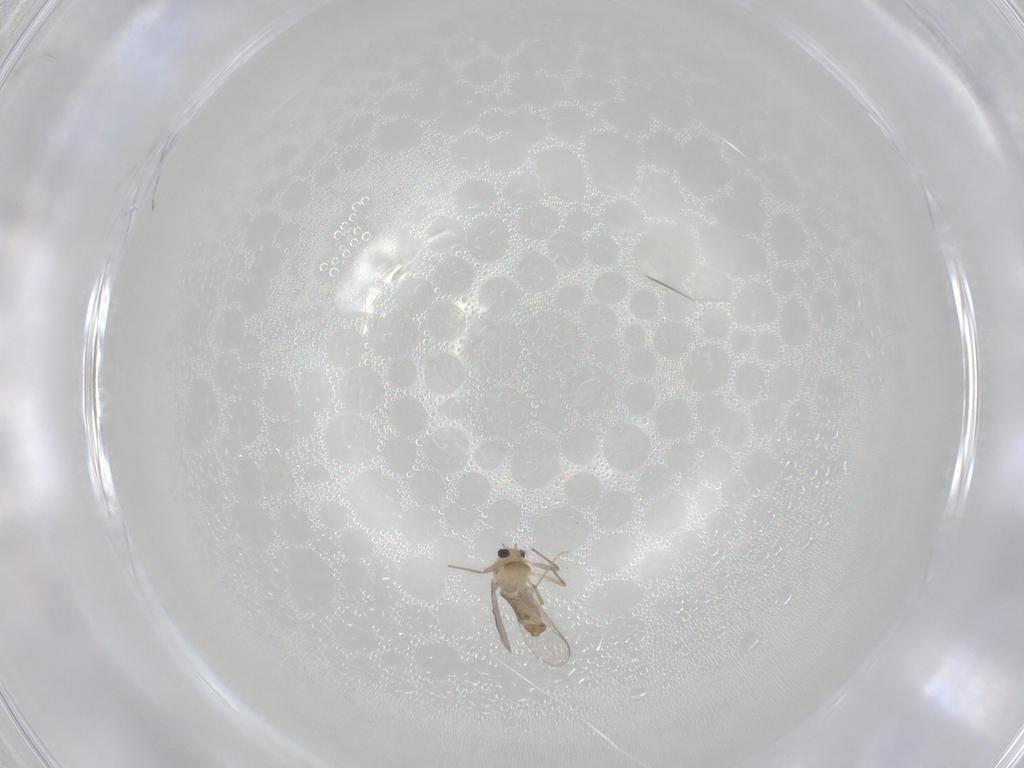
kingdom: Animalia
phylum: Arthropoda
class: Insecta
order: Diptera
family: Chironomidae
